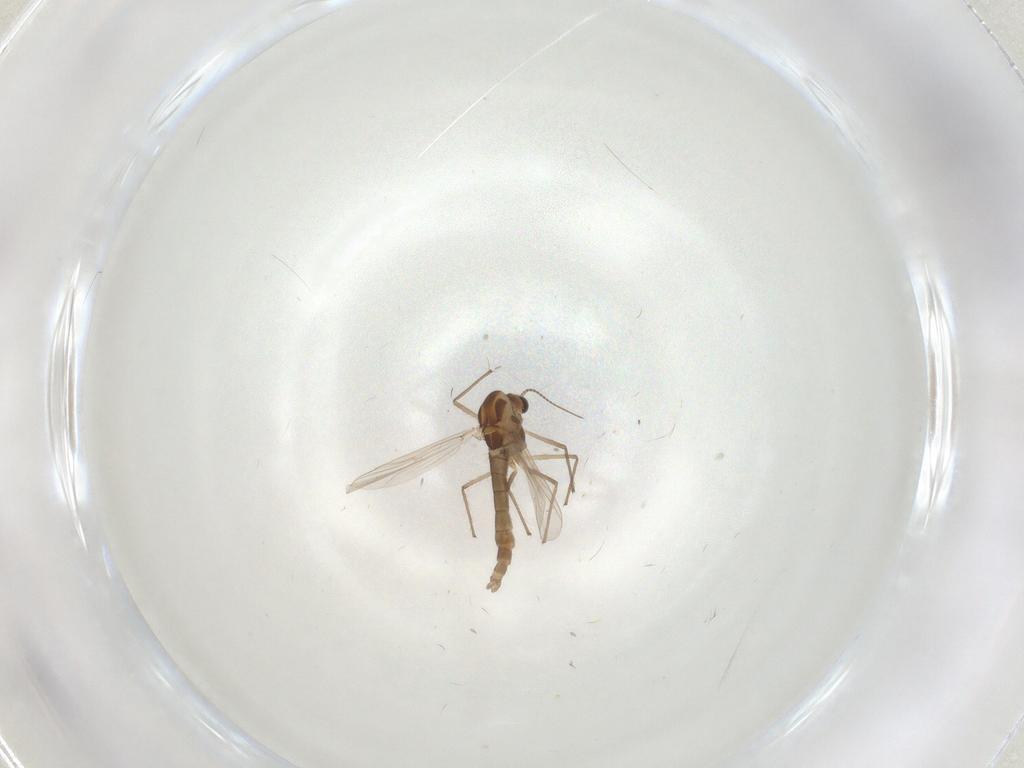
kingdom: Animalia
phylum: Arthropoda
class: Insecta
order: Diptera
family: Chironomidae
